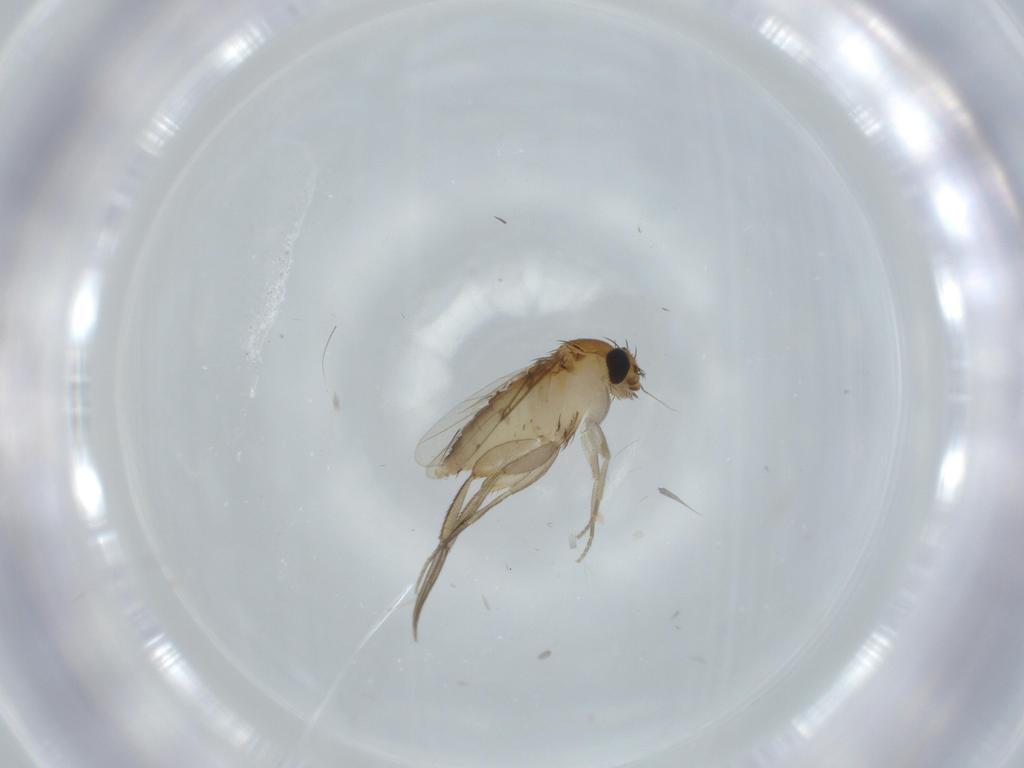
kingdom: Animalia
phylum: Arthropoda
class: Insecta
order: Diptera
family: Phoridae
